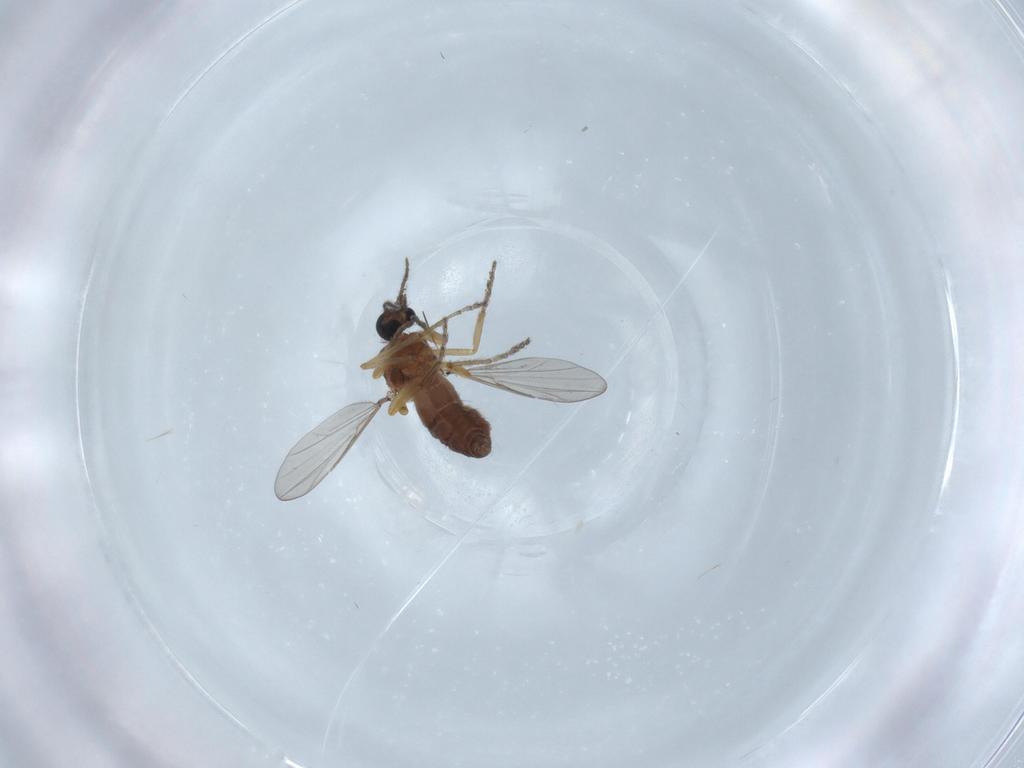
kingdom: Animalia
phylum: Arthropoda
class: Insecta
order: Diptera
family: Ceratopogonidae
